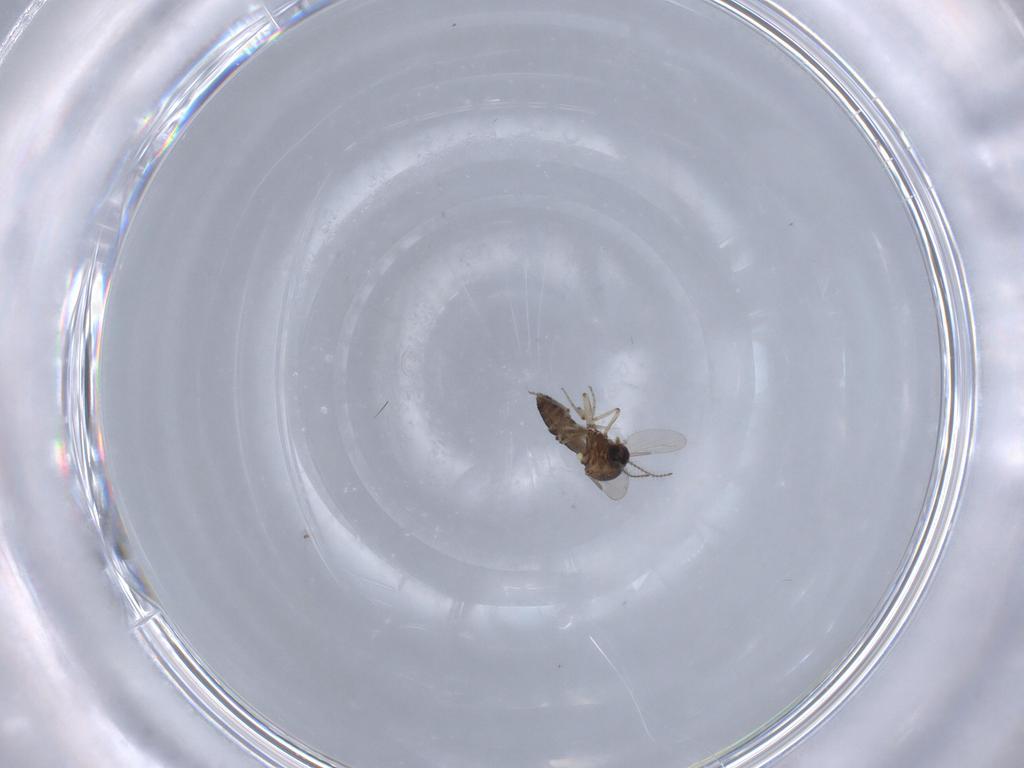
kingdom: Animalia
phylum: Arthropoda
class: Insecta
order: Diptera
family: Ceratopogonidae
